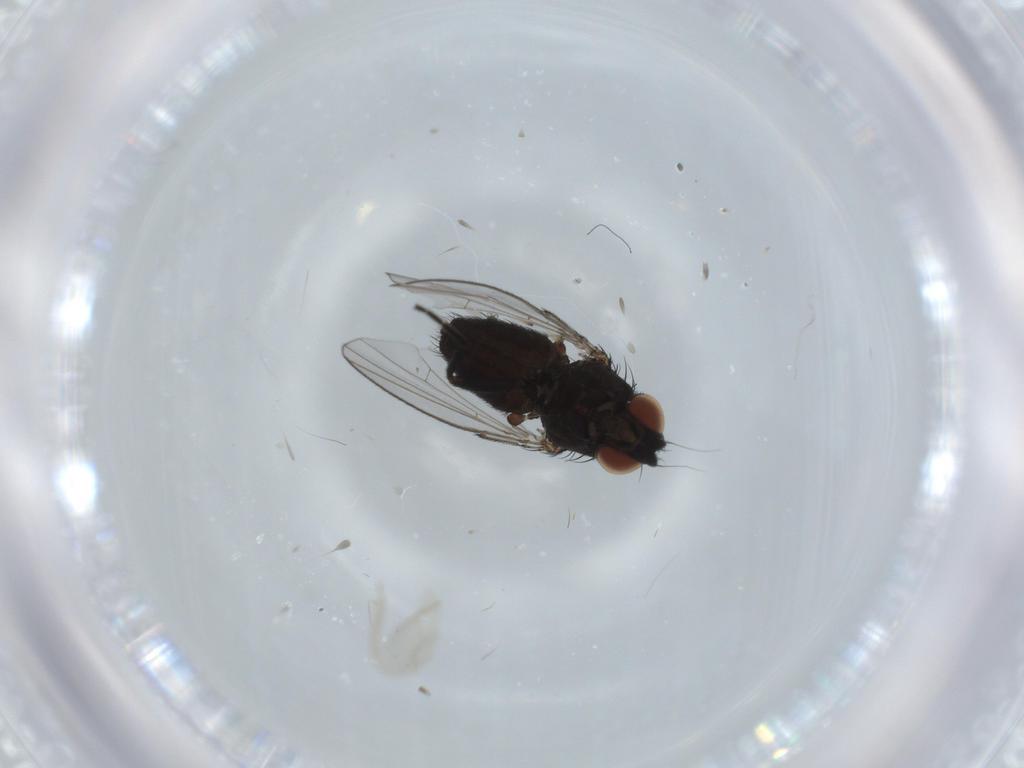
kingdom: Animalia
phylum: Arthropoda
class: Insecta
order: Diptera
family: Milichiidae
